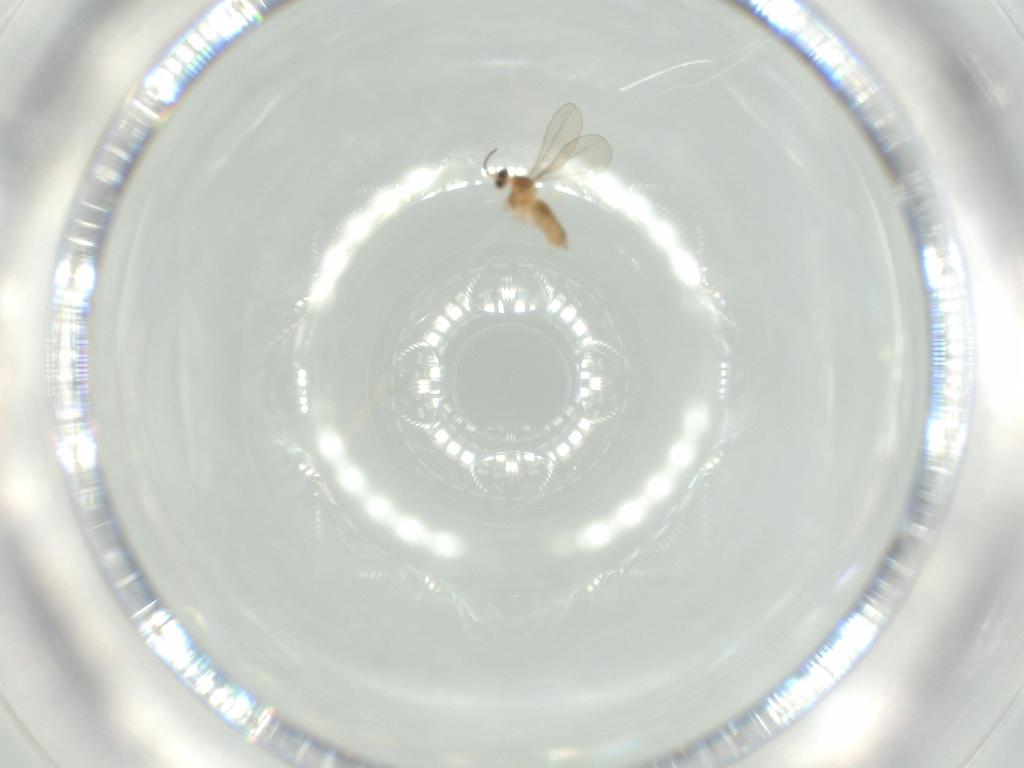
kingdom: Animalia
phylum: Arthropoda
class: Insecta
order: Diptera
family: Cecidomyiidae
